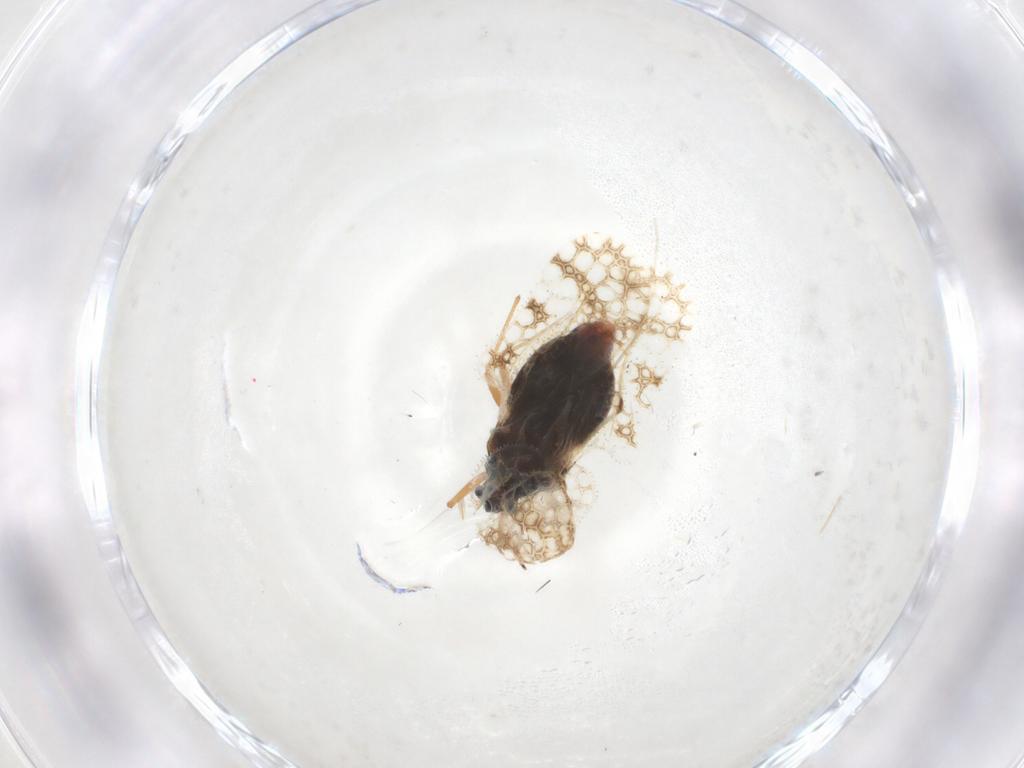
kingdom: Animalia
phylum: Arthropoda
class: Insecta
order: Hemiptera
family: Tingidae
